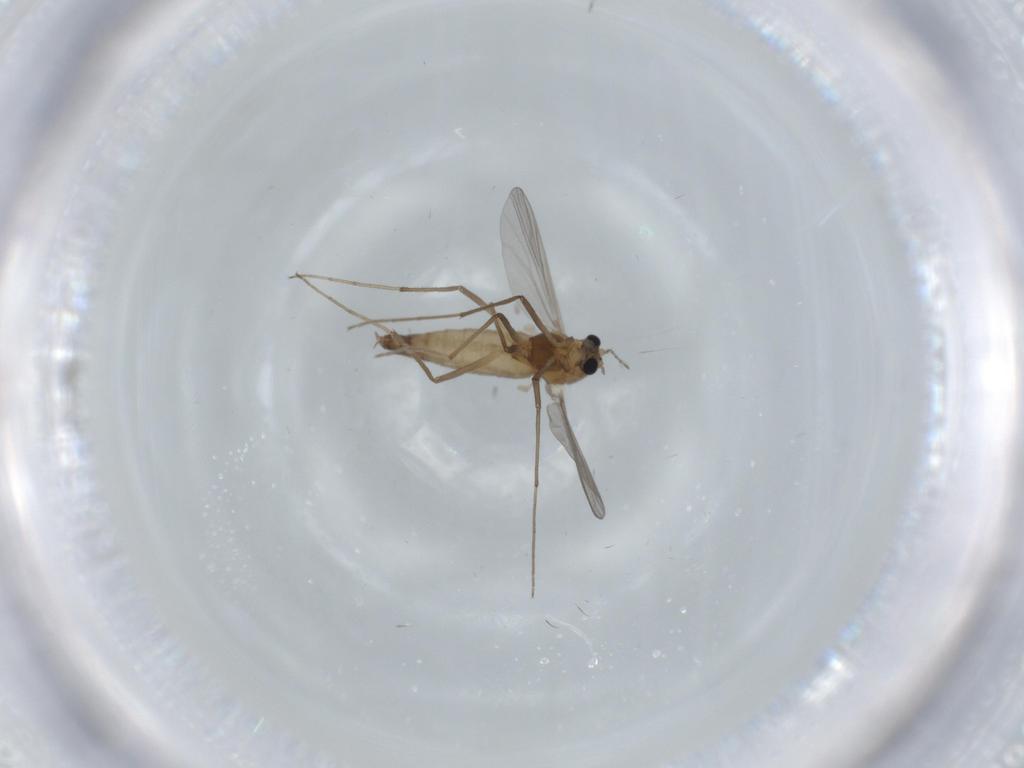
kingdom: Animalia
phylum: Arthropoda
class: Insecta
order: Diptera
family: Chironomidae
